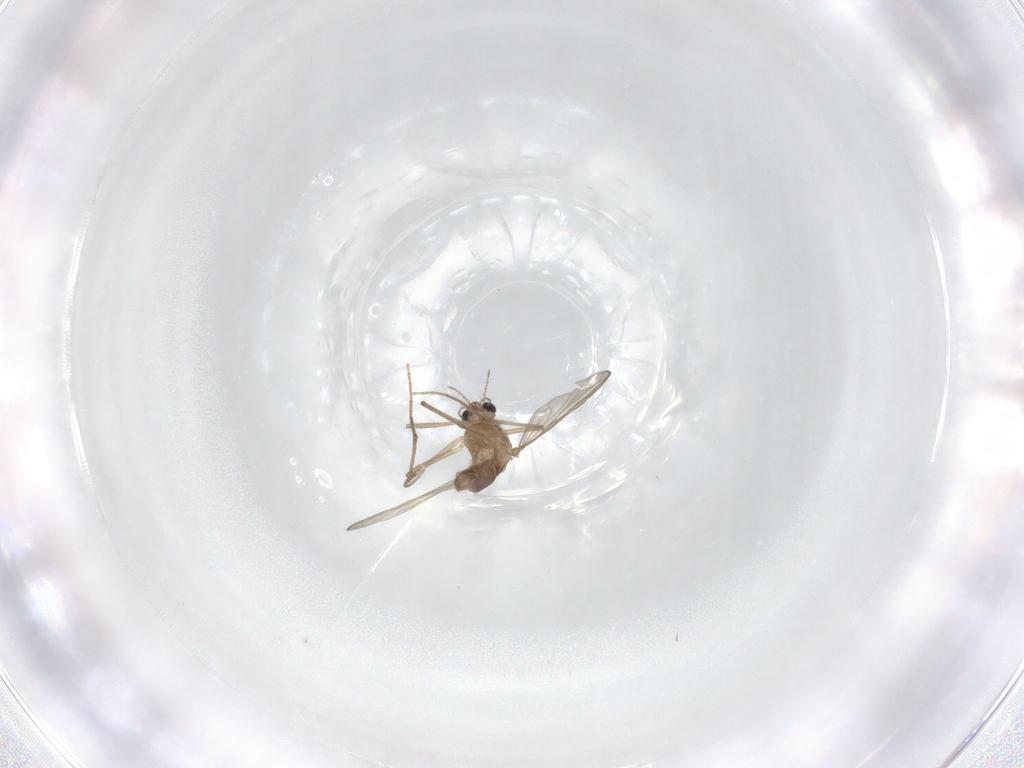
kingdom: Animalia
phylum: Arthropoda
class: Insecta
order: Diptera
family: Chironomidae
